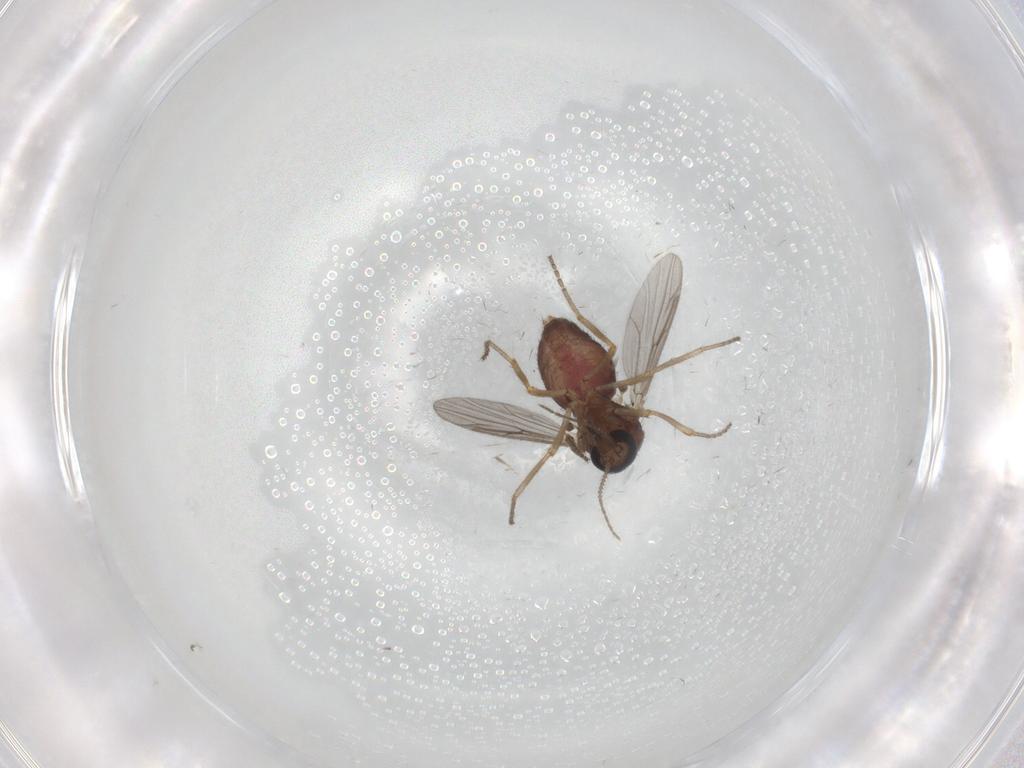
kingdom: Animalia
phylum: Arthropoda
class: Insecta
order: Diptera
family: Ceratopogonidae
